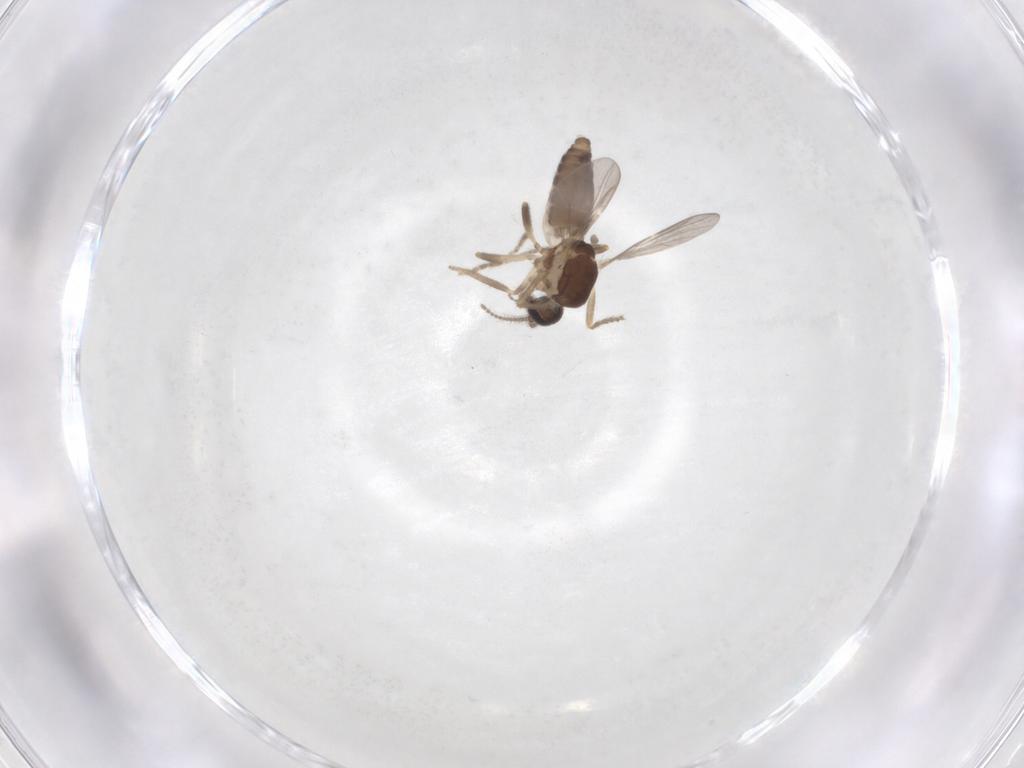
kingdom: Animalia
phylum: Arthropoda
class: Insecta
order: Diptera
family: Ceratopogonidae
